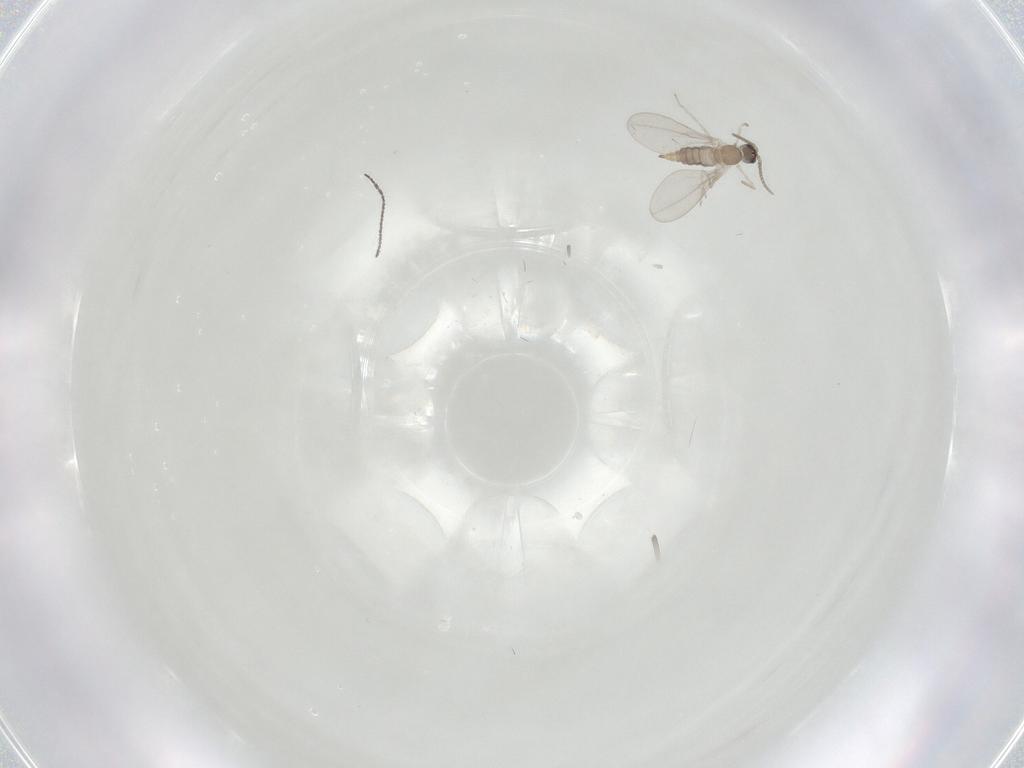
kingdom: Animalia
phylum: Arthropoda
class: Insecta
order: Diptera
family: Cecidomyiidae
